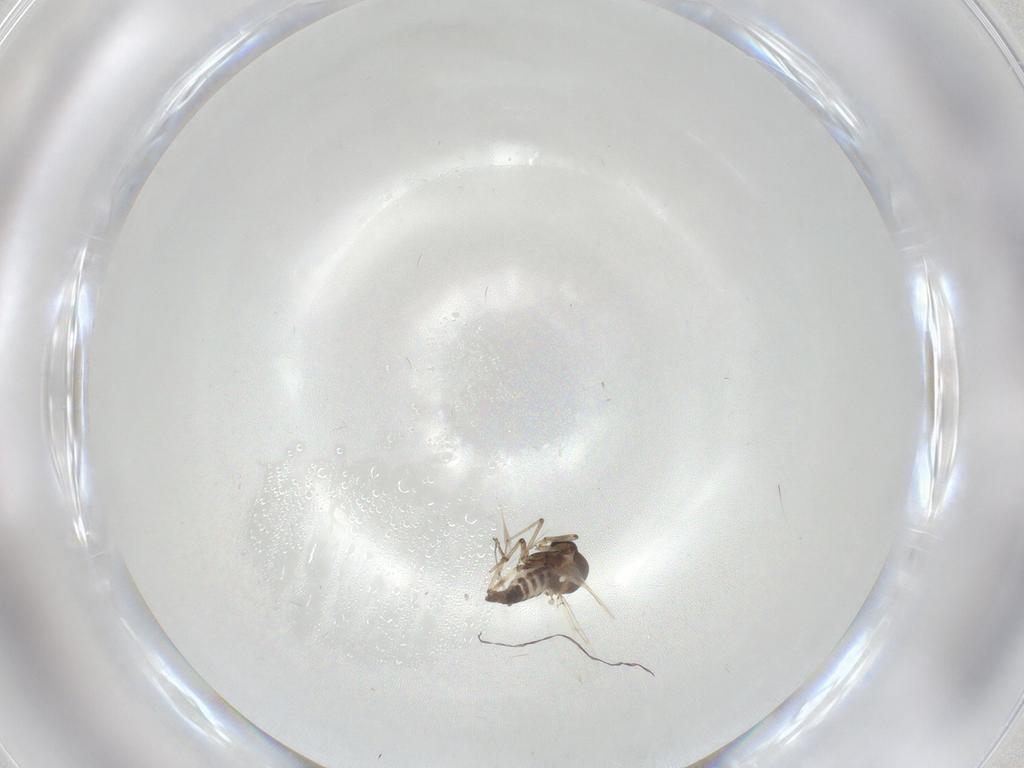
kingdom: Animalia
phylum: Arthropoda
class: Insecta
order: Diptera
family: Ceratopogonidae
